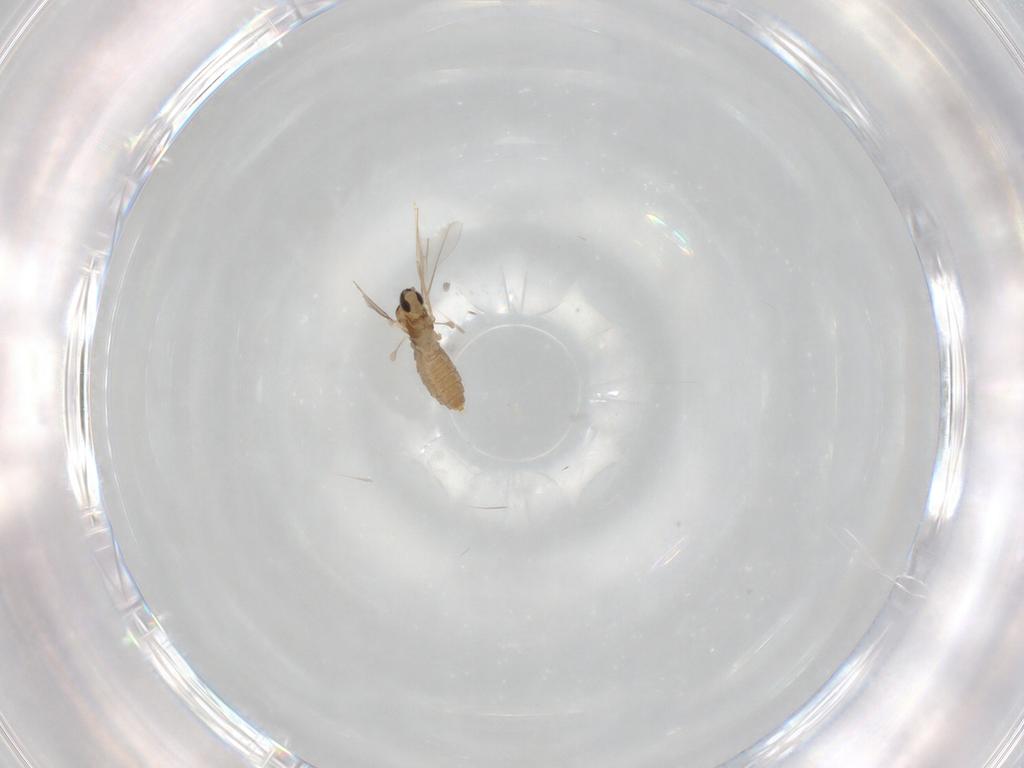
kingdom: Animalia
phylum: Arthropoda
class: Insecta
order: Diptera
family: Cecidomyiidae
